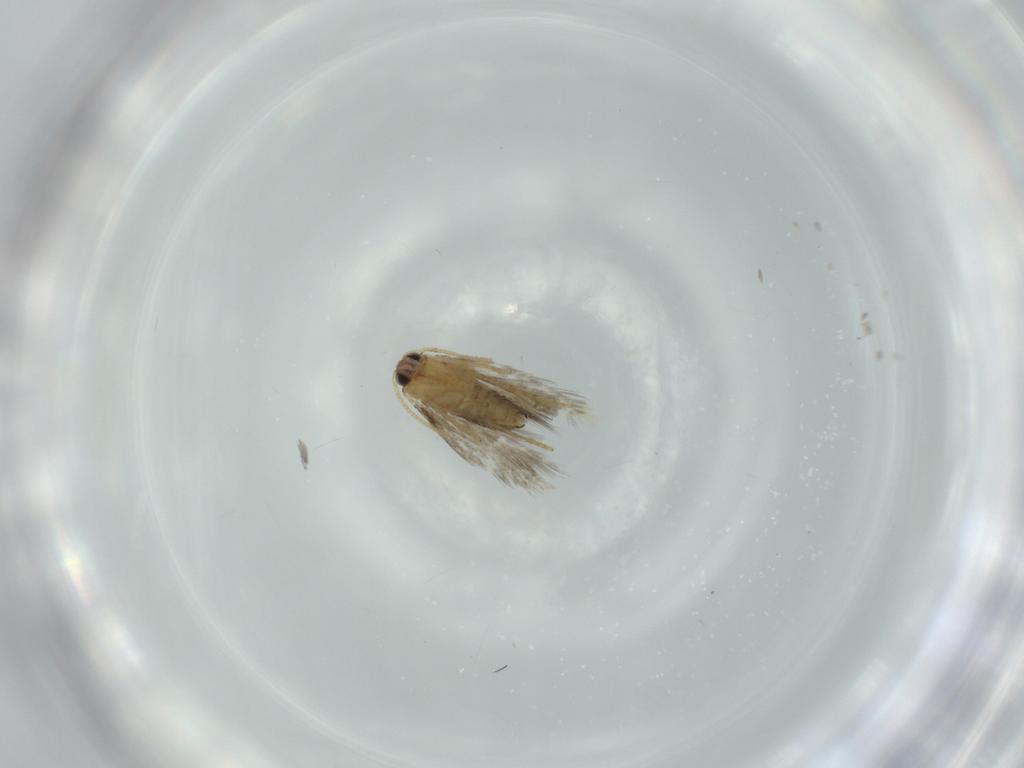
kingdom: Animalia
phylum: Arthropoda
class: Insecta
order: Lepidoptera
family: Copromorphidae
